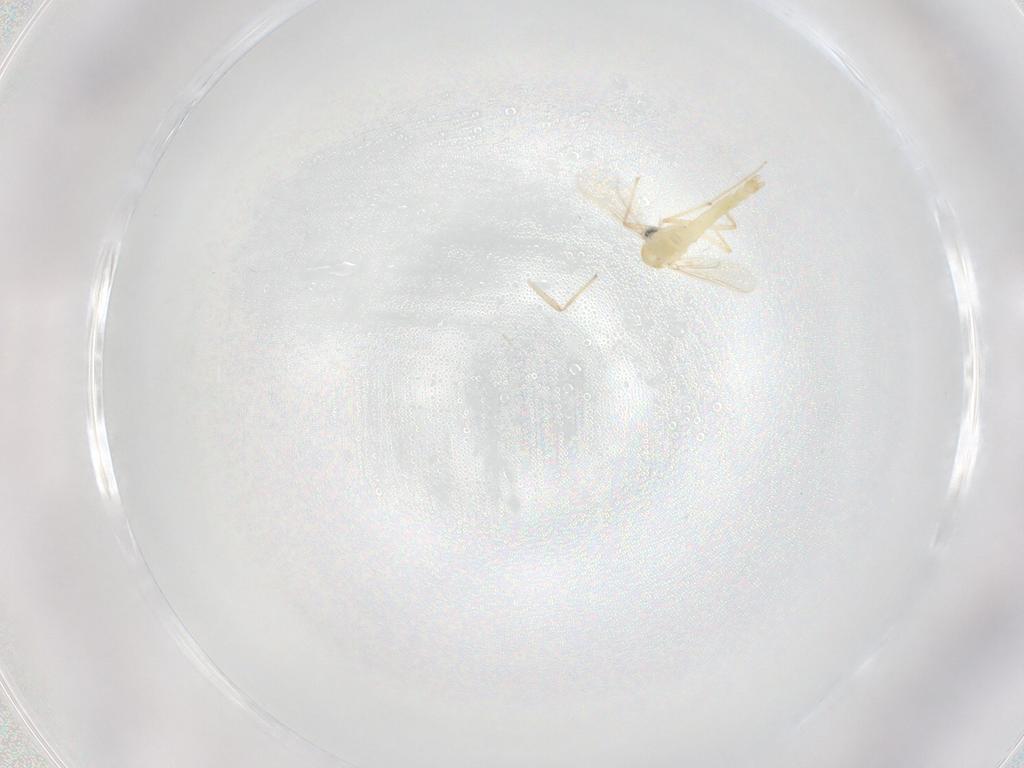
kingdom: Animalia
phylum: Arthropoda
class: Insecta
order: Diptera
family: Chironomidae
